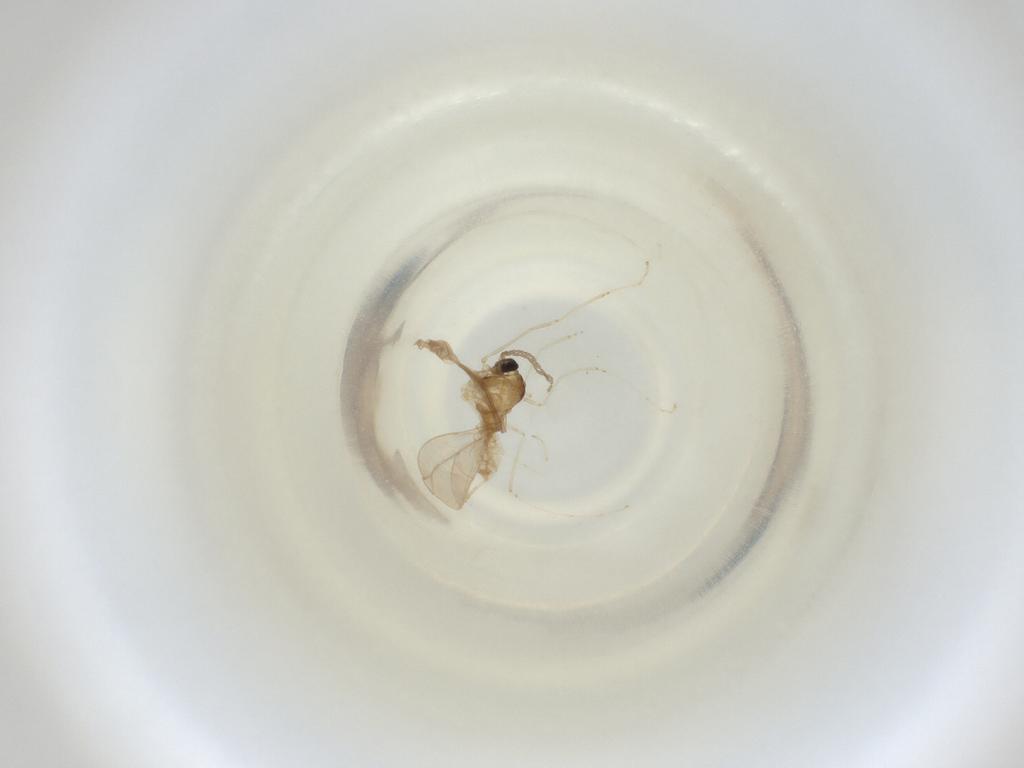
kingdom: Animalia
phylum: Arthropoda
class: Insecta
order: Diptera
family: Cecidomyiidae
